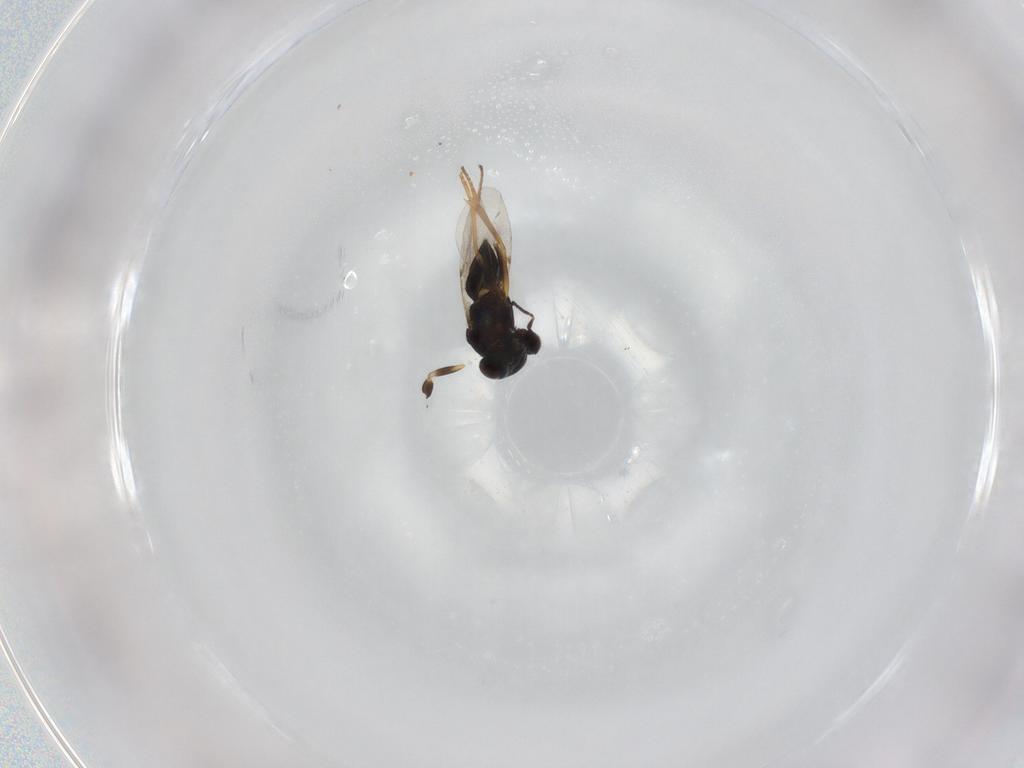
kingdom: Animalia
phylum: Arthropoda
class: Insecta
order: Hymenoptera
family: Encyrtidae
